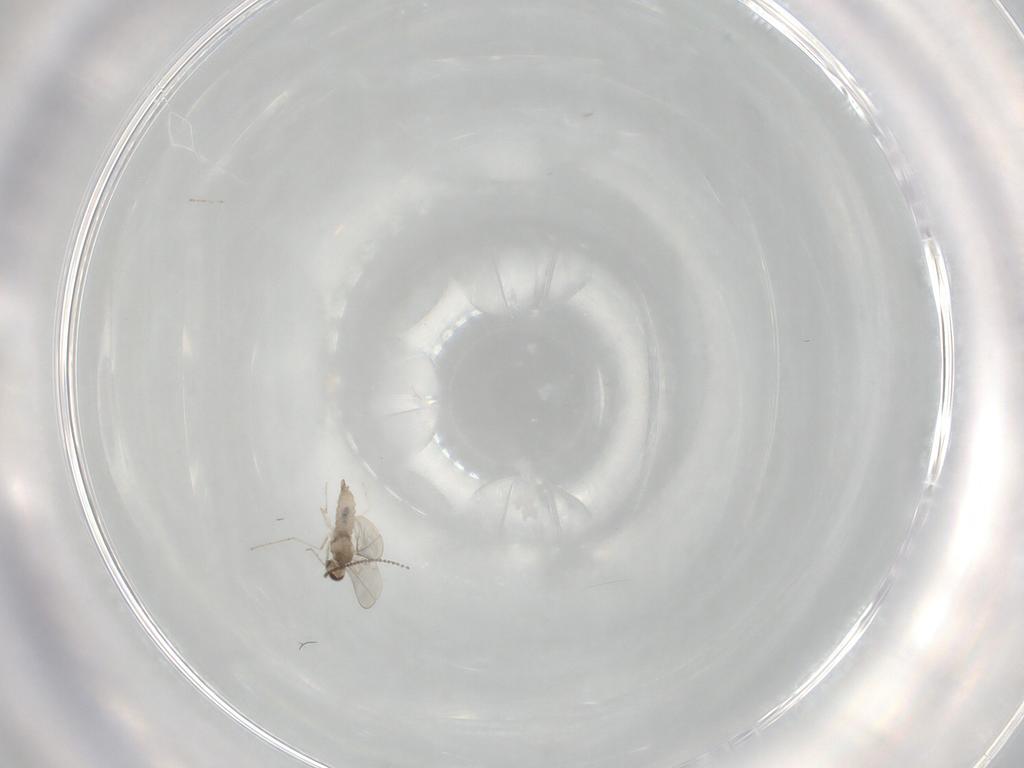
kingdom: Animalia
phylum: Arthropoda
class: Insecta
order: Diptera
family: Cecidomyiidae
